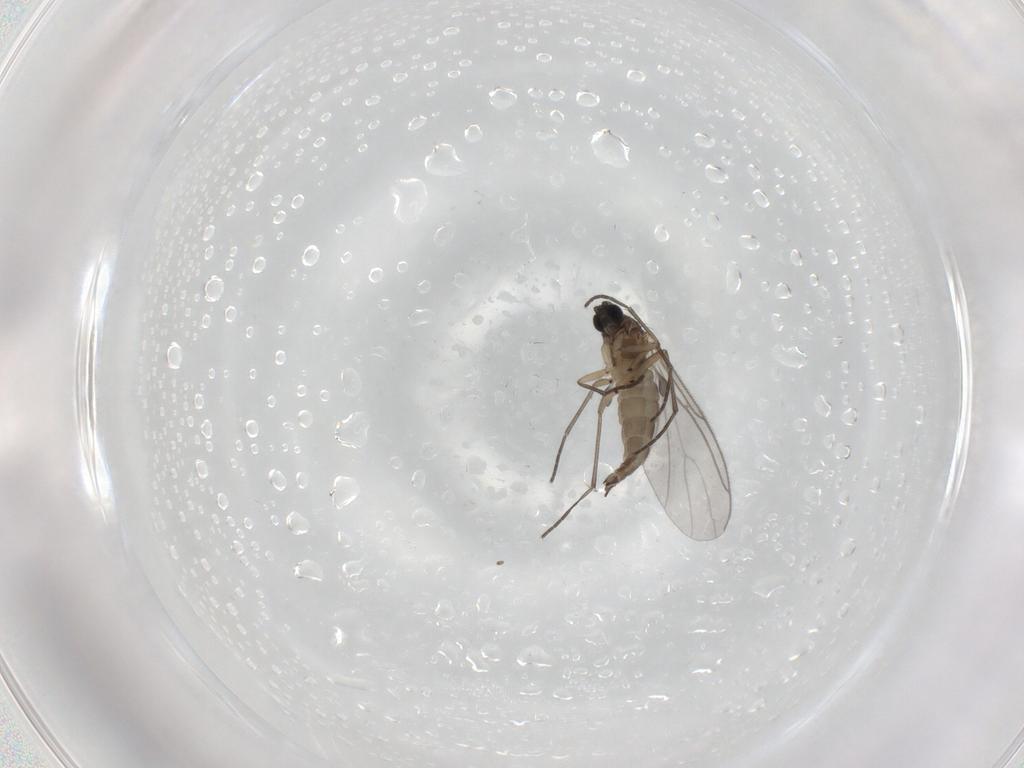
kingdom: Animalia
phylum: Arthropoda
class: Insecta
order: Diptera
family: Sciaridae
